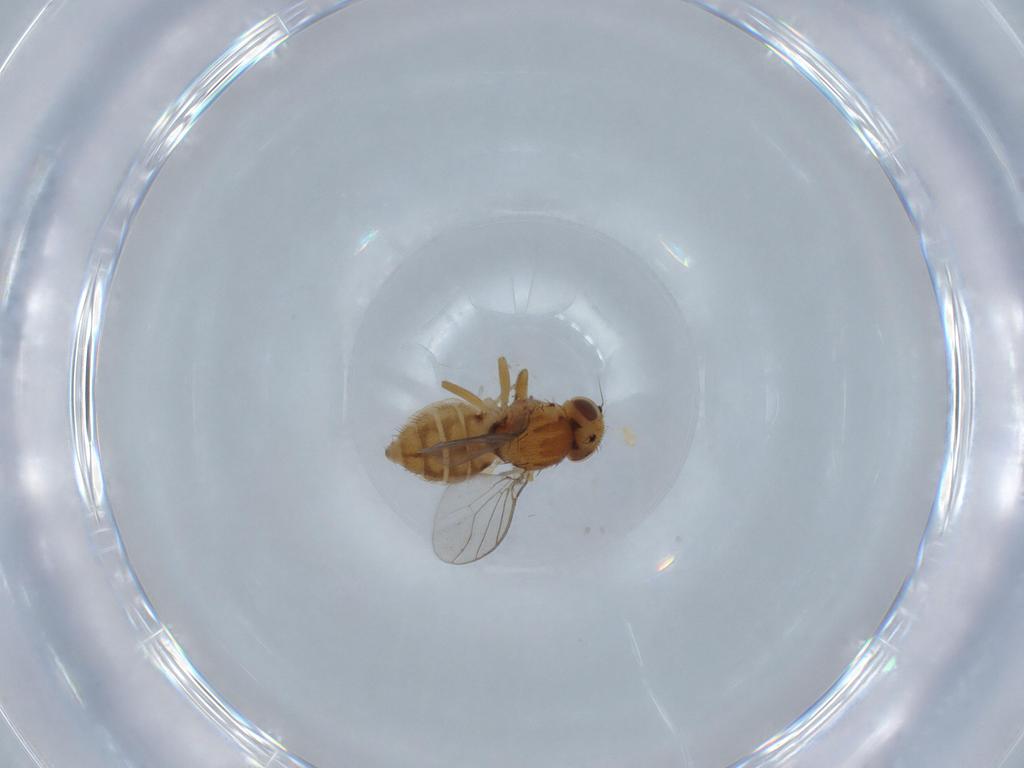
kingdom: Animalia
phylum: Arthropoda
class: Insecta
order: Diptera
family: Chloropidae
